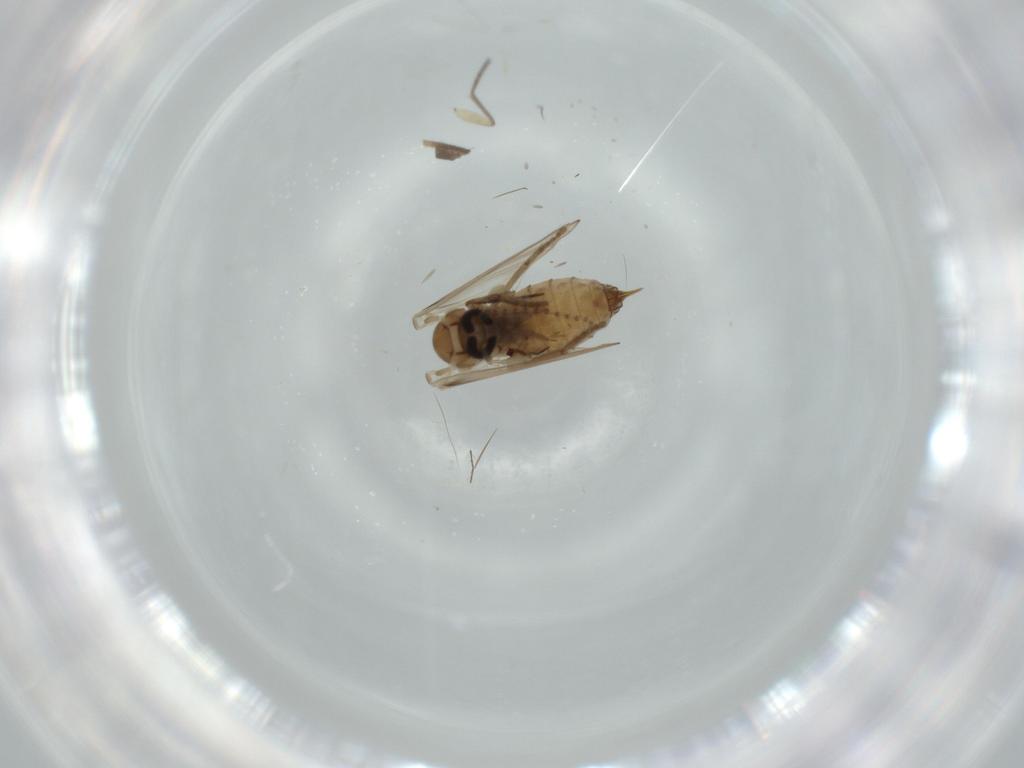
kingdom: Animalia
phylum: Arthropoda
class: Insecta
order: Diptera
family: Psychodidae
